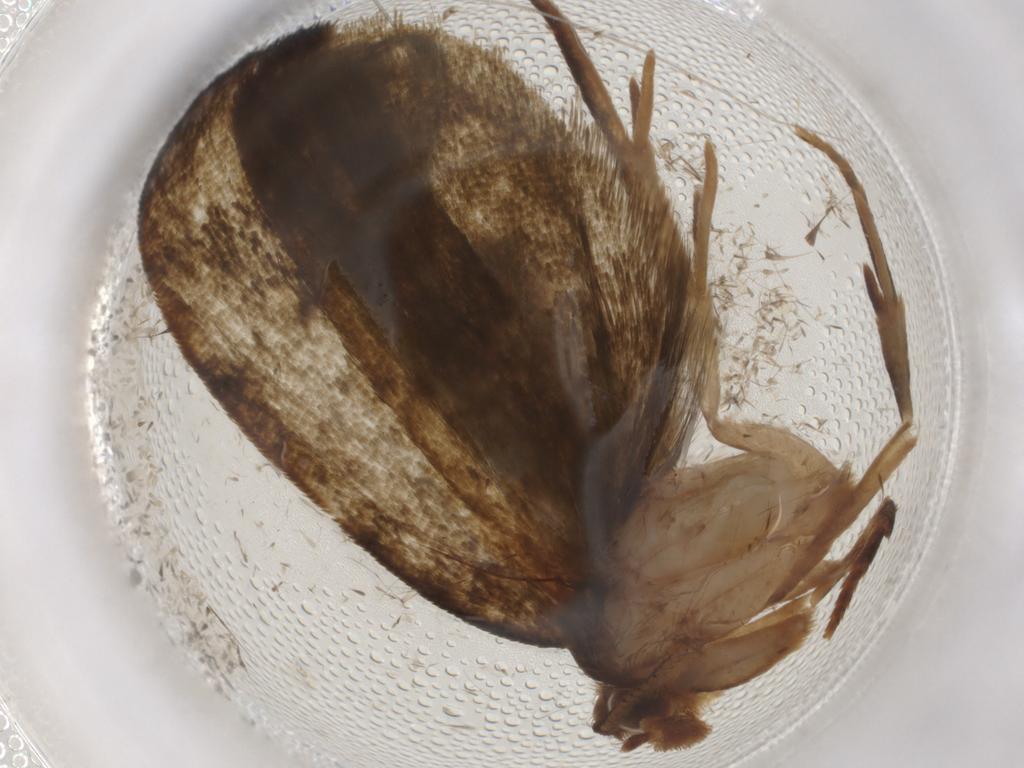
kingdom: Animalia
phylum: Arthropoda
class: Insecta
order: Lepidoptera
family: Geometridae
